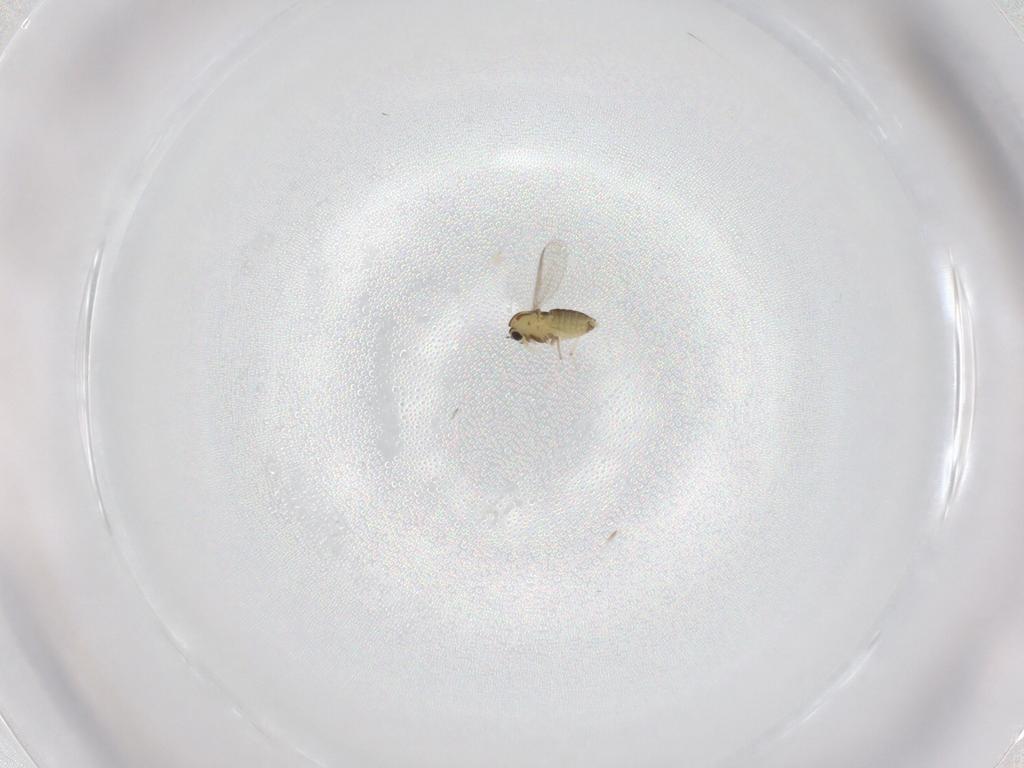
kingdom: Animalia
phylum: Arthropoda
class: Insecta
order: Diptera
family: Chironomidae
